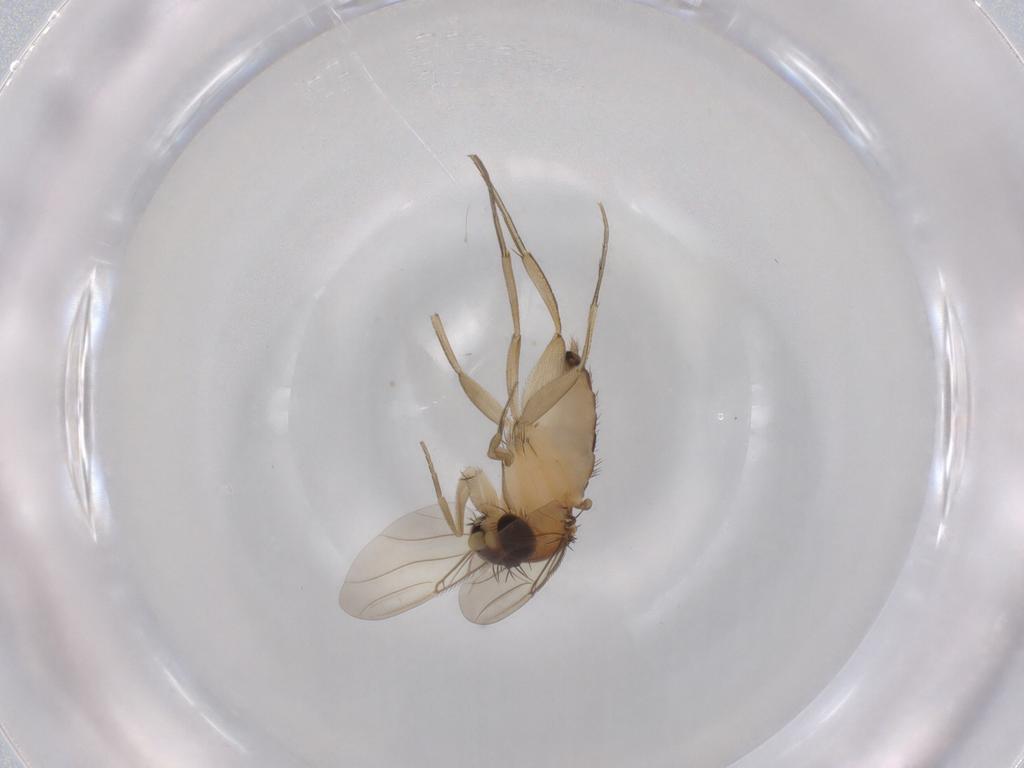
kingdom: Animalia
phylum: Arthropoda
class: Insecta
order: Diptera
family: Phoridae
